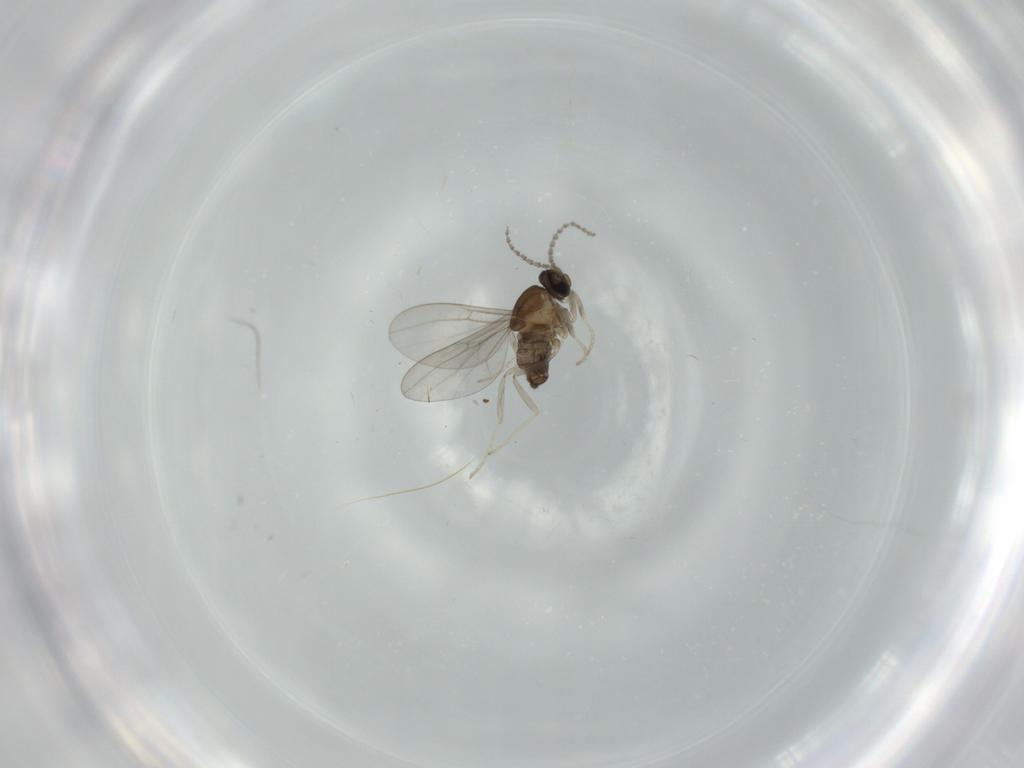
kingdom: Animalia
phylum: Arthropoda
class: Insecta
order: Diptera
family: Cecidomyiidae
